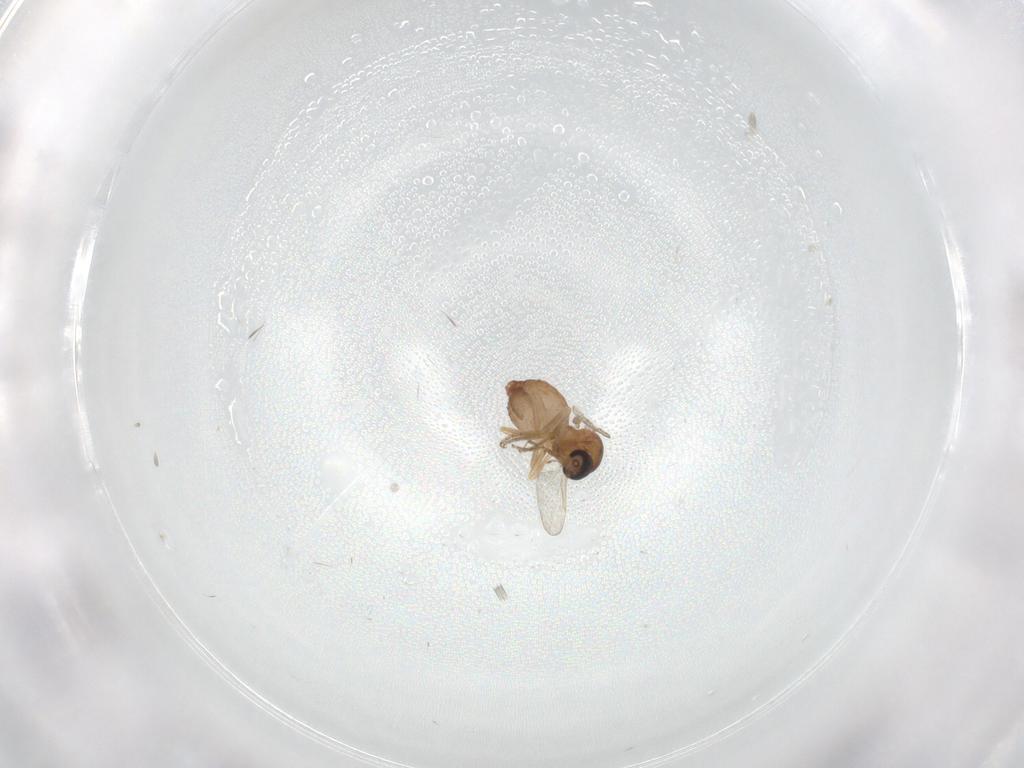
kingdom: Animalia
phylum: Arthropoda
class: Insecta
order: Diptera
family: Ceratopogonidae
